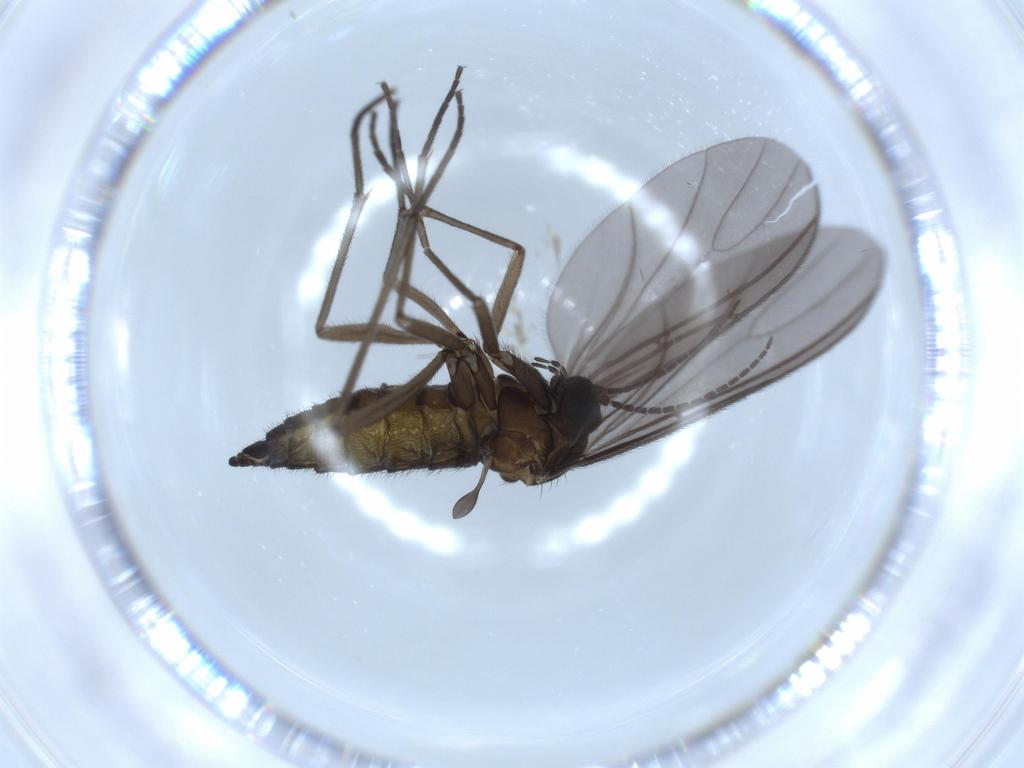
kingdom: Animalia
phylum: Arthropoda
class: Insecta
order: Diptera
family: Sciaridae
